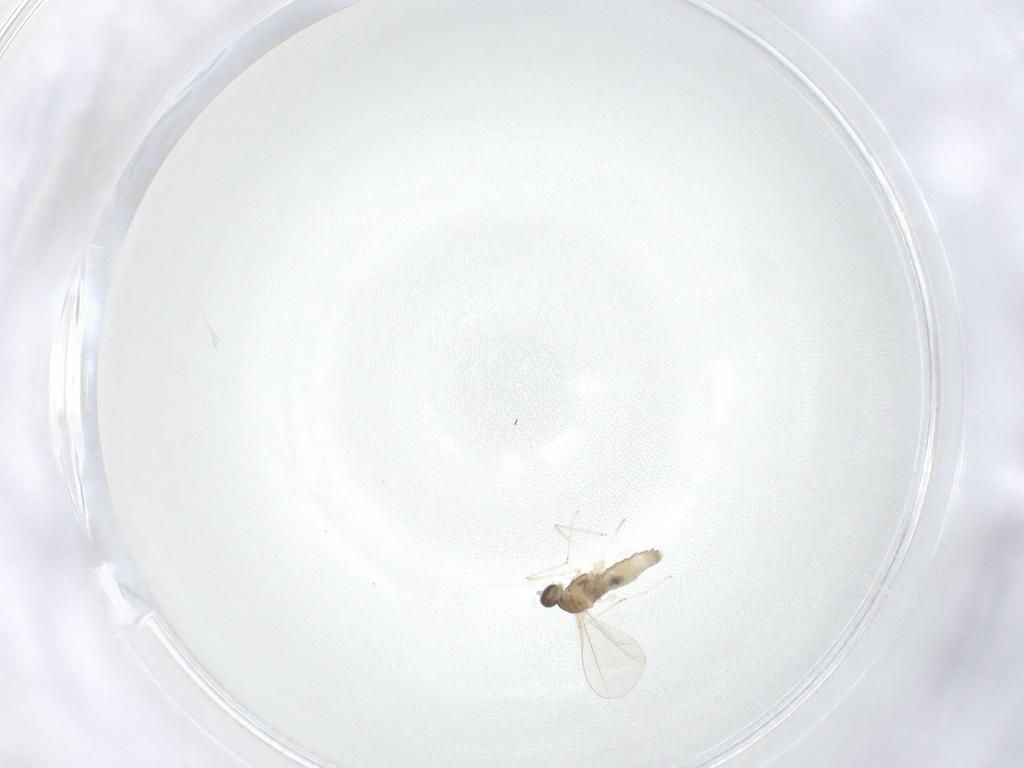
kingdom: Animalia
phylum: Arthropoda
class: Insecta
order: Diptera
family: Cecidomyiidae
